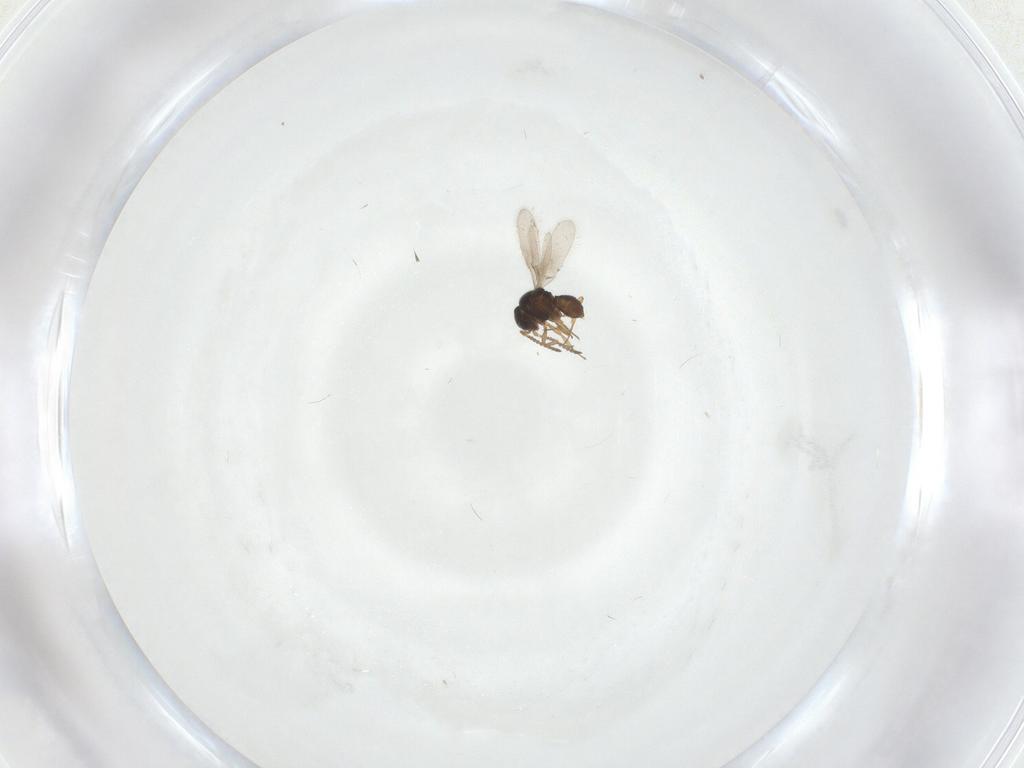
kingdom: Animalia
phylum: Arthropoda
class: Insecta
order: Hymenoptera
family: Scelionidae
